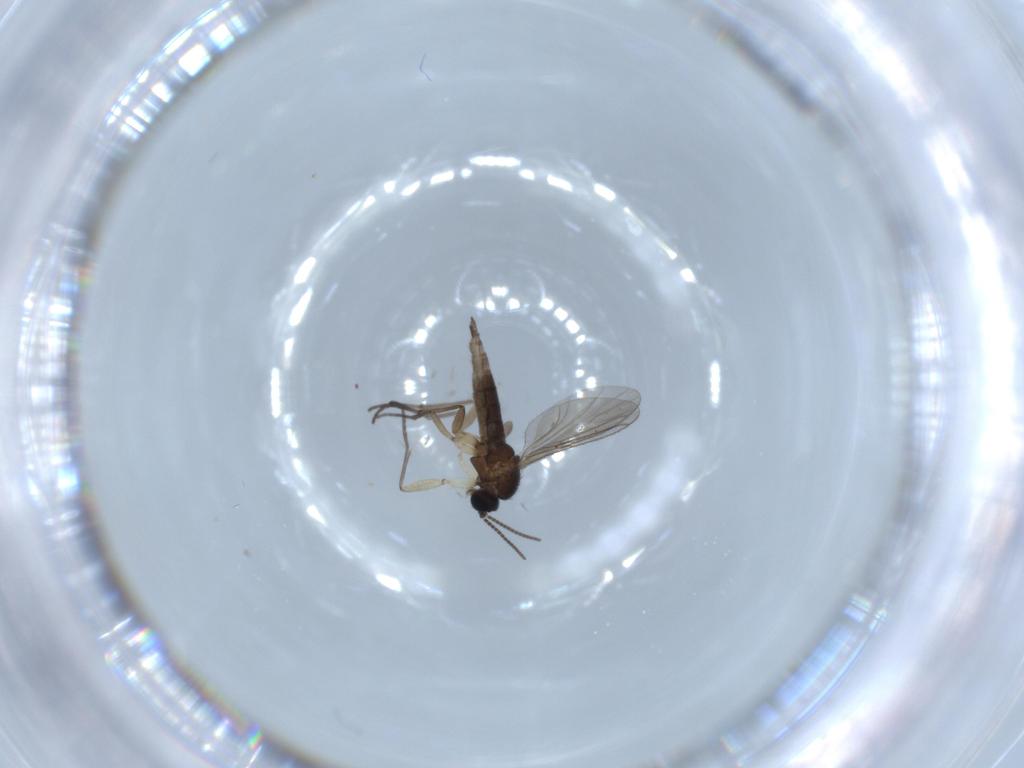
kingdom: Animalia
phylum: Arthropoda
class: Insecta
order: Diptera
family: Sciaridae
